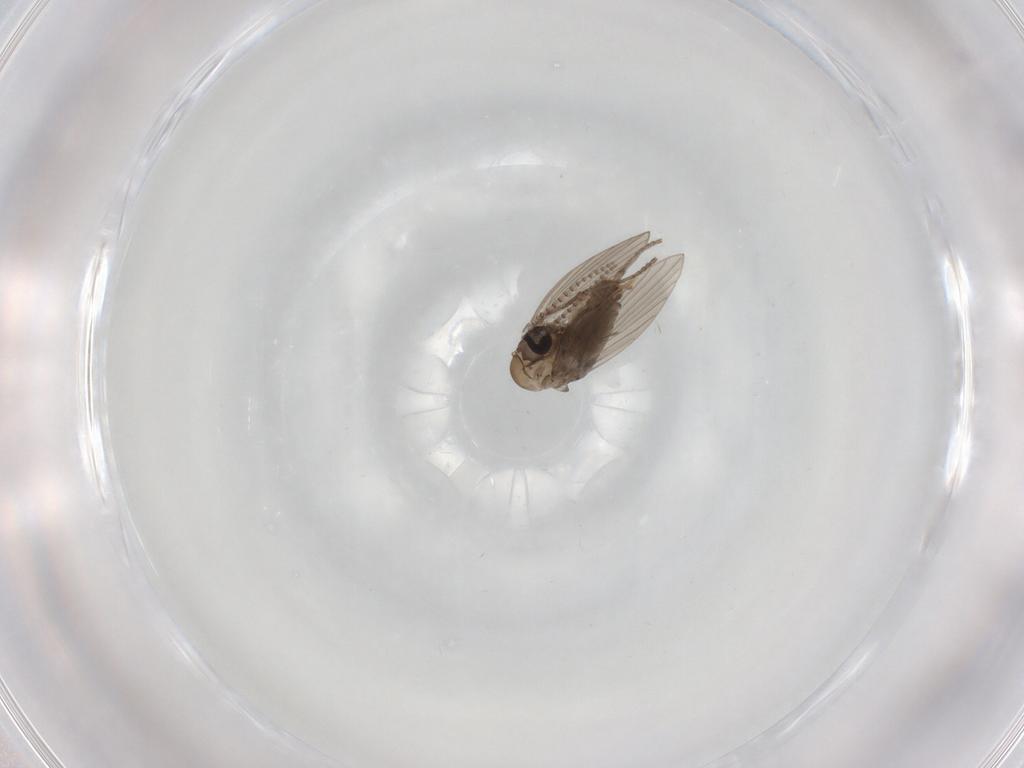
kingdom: Animalia
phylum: Arthropoda
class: Insecta
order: Diptera
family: Psychodidae
